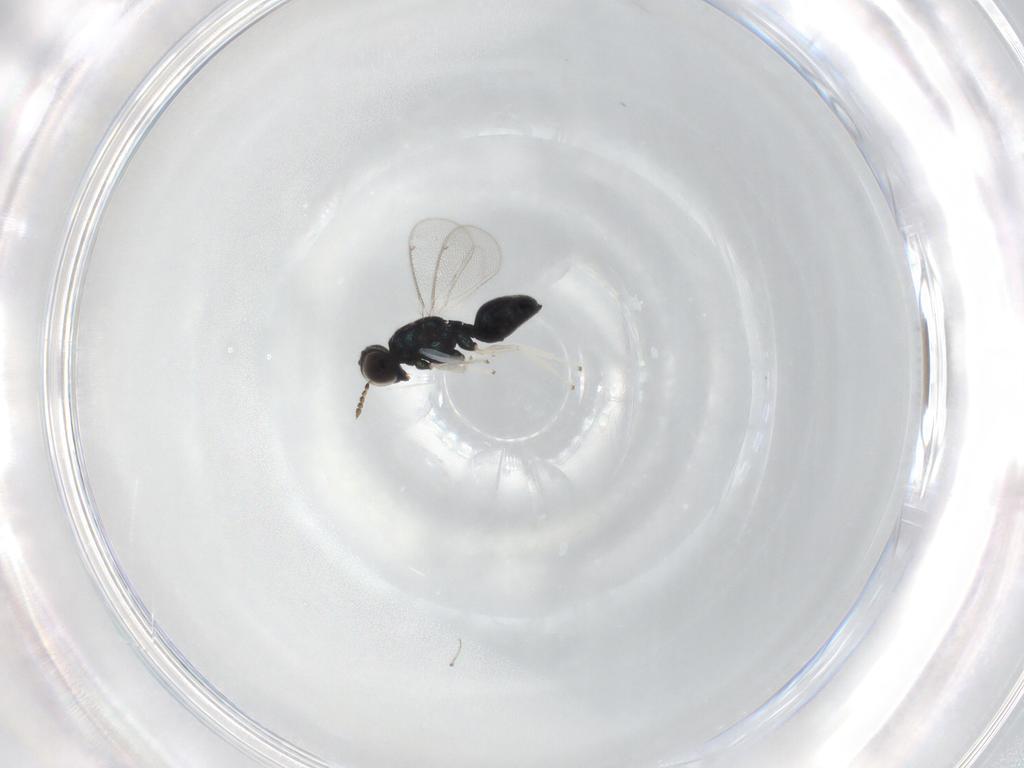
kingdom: Animalia
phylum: Arthropoda
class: Insecta
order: Hymenoptera
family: Eulophidae
